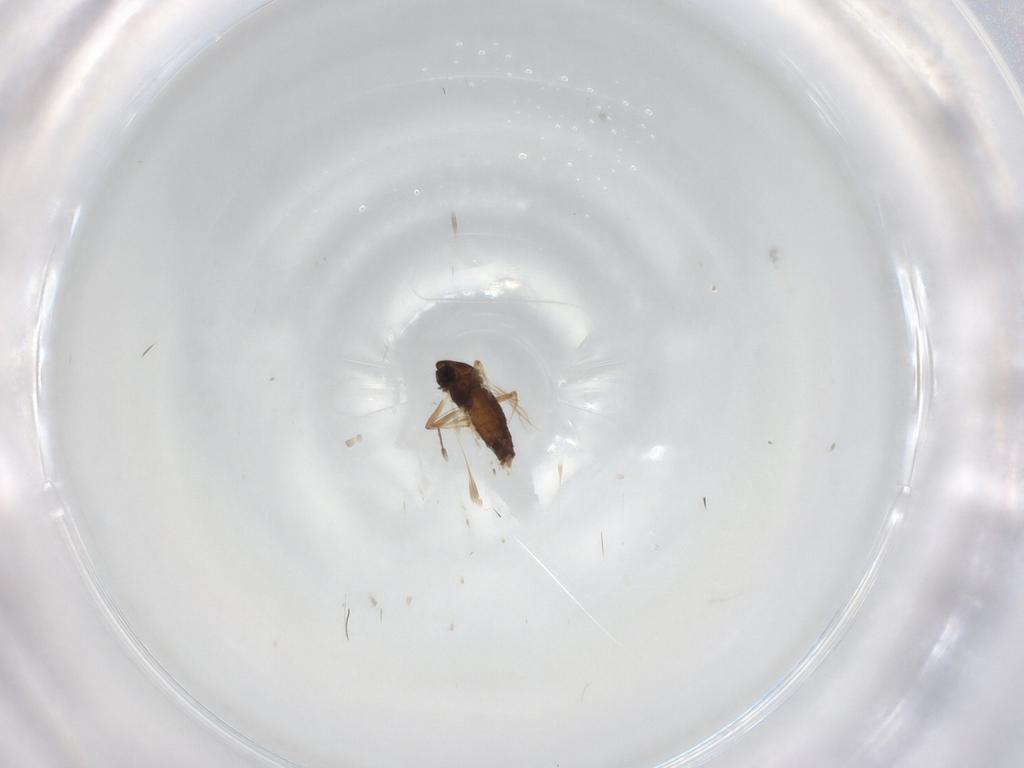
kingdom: Animalia
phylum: Arthropoda
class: Insecta
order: Diptera
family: Chironomidae
